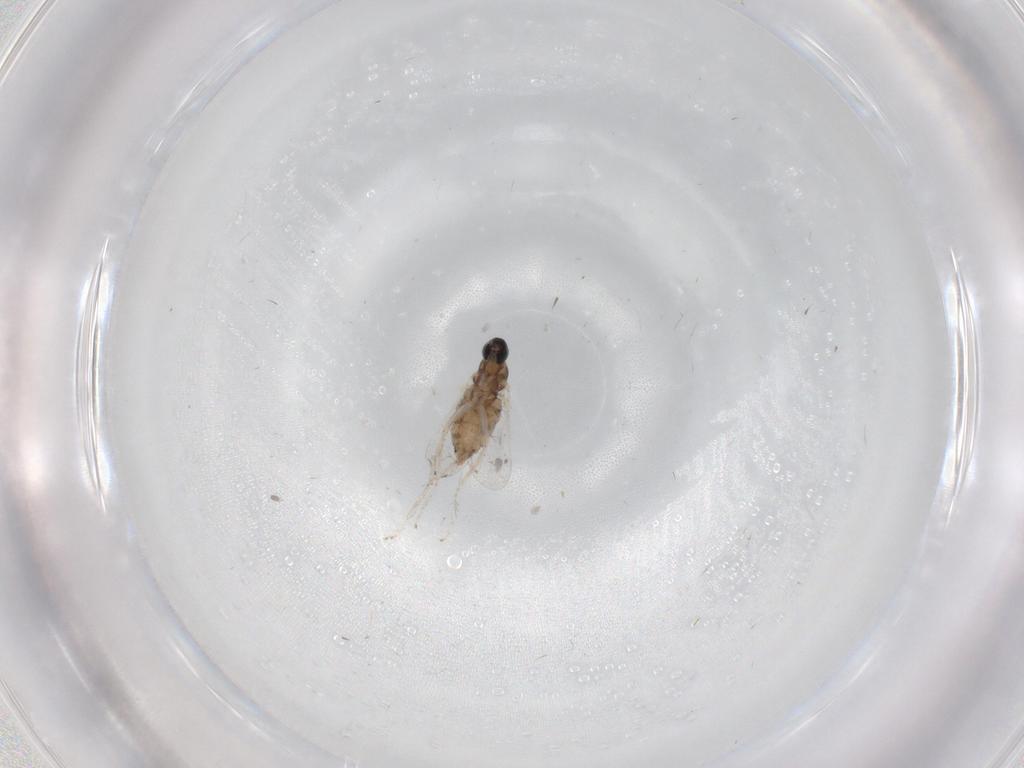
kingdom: Animalia
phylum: Arthropoda
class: Insecta
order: Diptera
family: Cecidomyiidae
